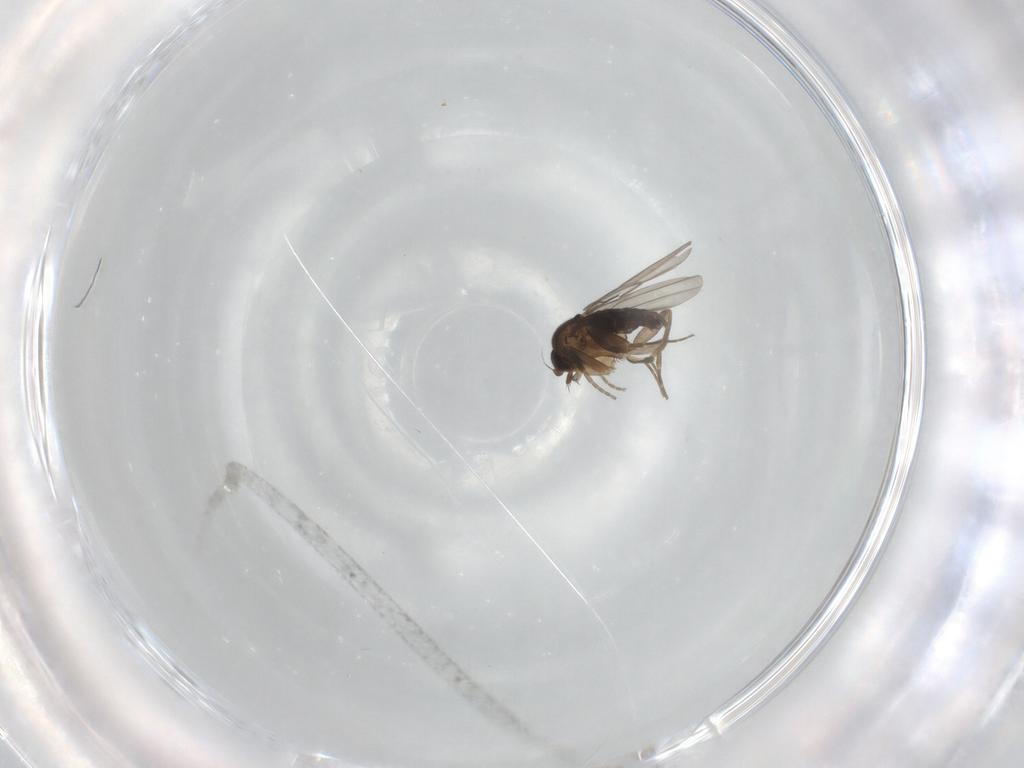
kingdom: Animalia
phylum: Arthropoda
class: Insecta
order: Diptera
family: Phoridae
